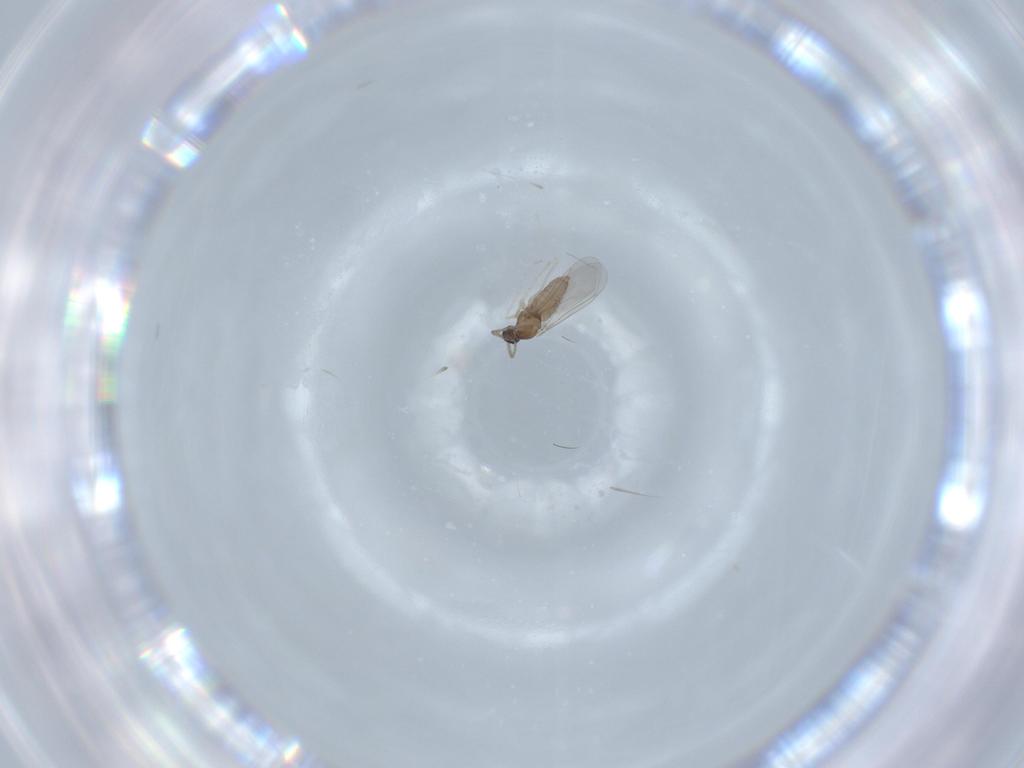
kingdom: Animalia
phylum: Arthropoda
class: Insecta
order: Diptera
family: Cecidomyiidae
